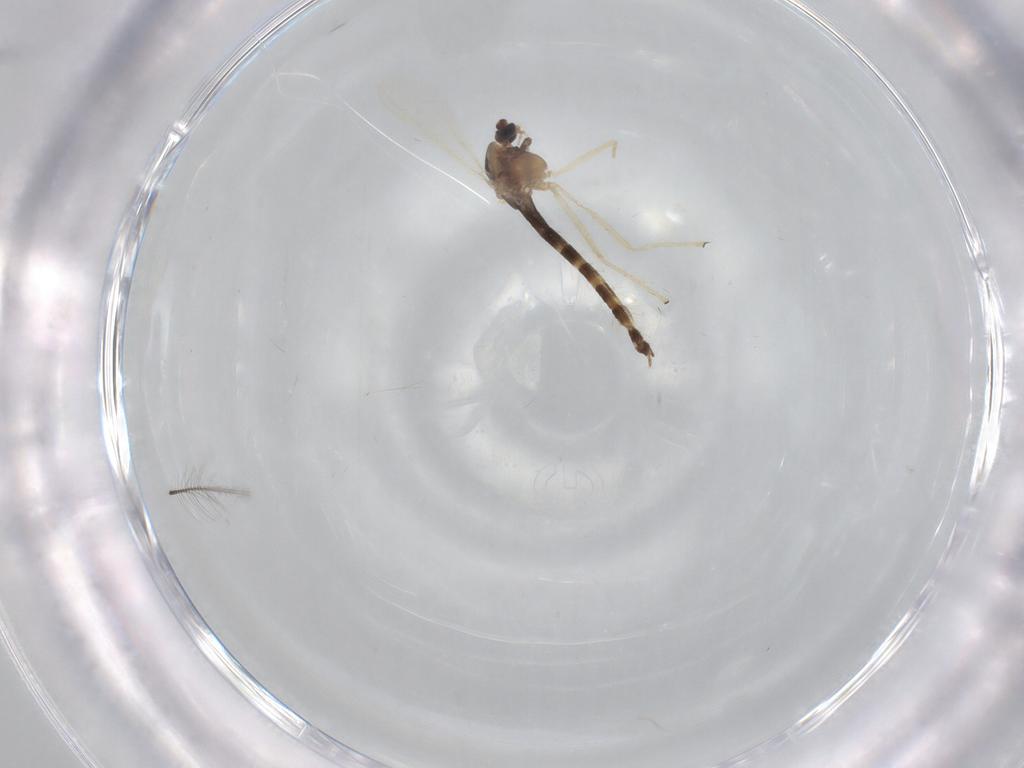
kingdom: Animalia
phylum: Arthropoda
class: Insecta
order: Diptera
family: Chironomidae
